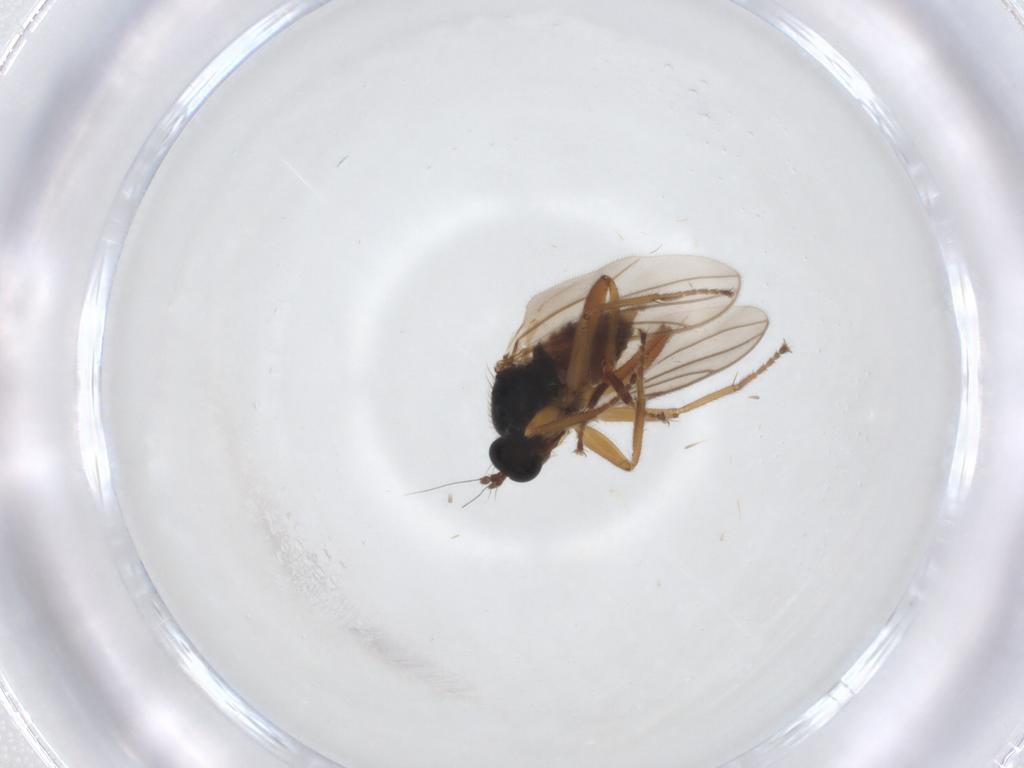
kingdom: Animalia
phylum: Arthropoda
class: Insecta
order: Diptera
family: Hybotidae
